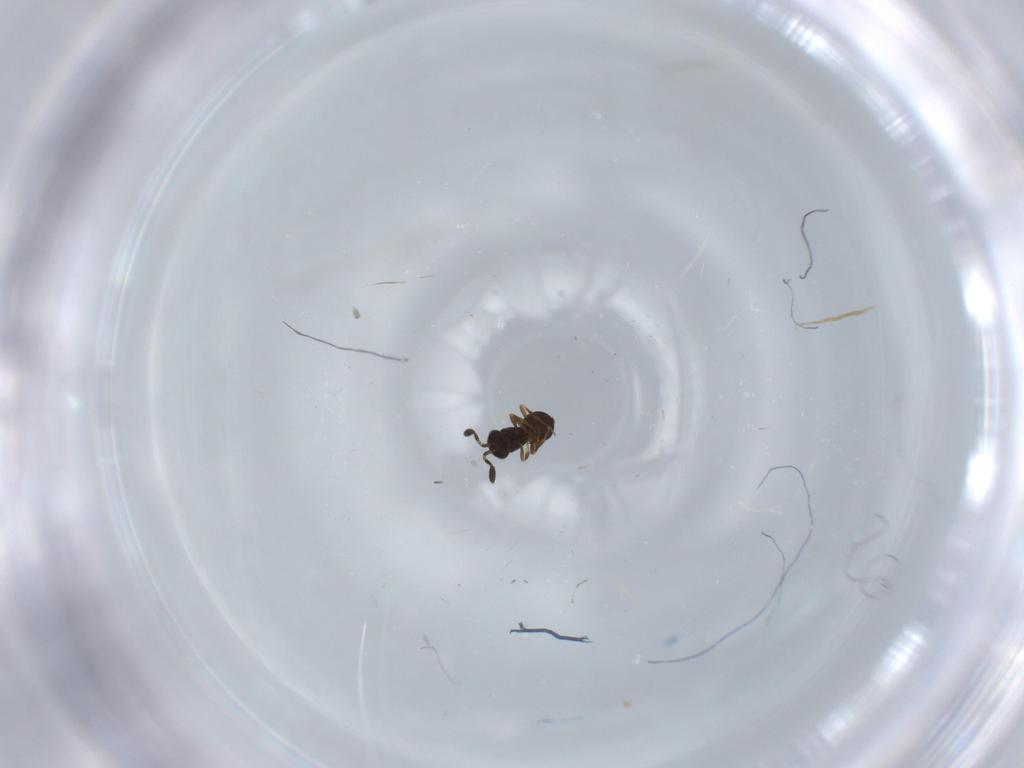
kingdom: Animalia
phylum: Arthropoda
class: Insecta
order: Hymenoptera
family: Scelionidae
